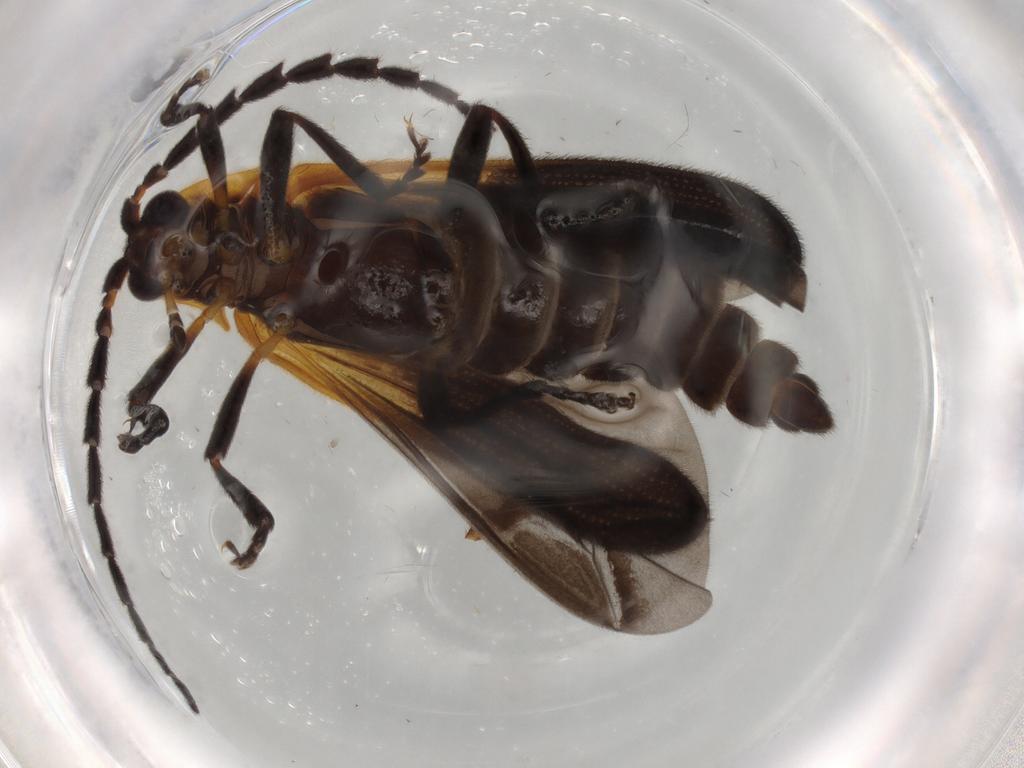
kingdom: Animalia
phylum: Arthropoda
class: Insecta
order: Coleoptera
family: Lycidae
